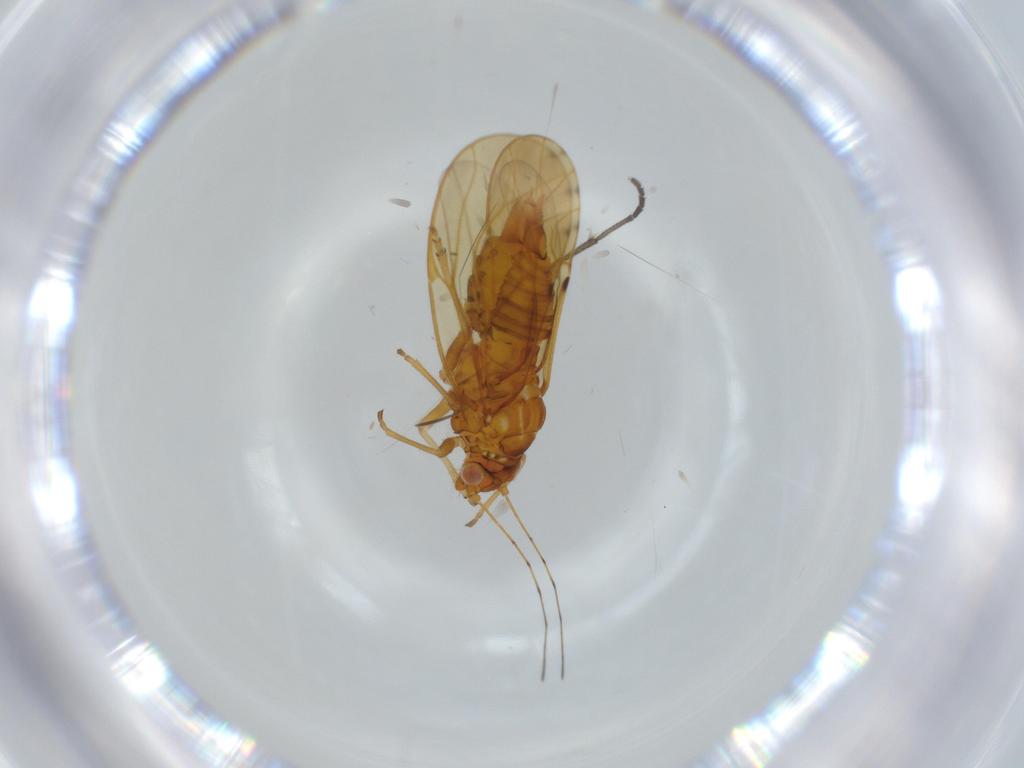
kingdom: Animalia
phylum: Arthropoda
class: Insecta
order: Hemiptera
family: Psylloidea_incertae_sedis
